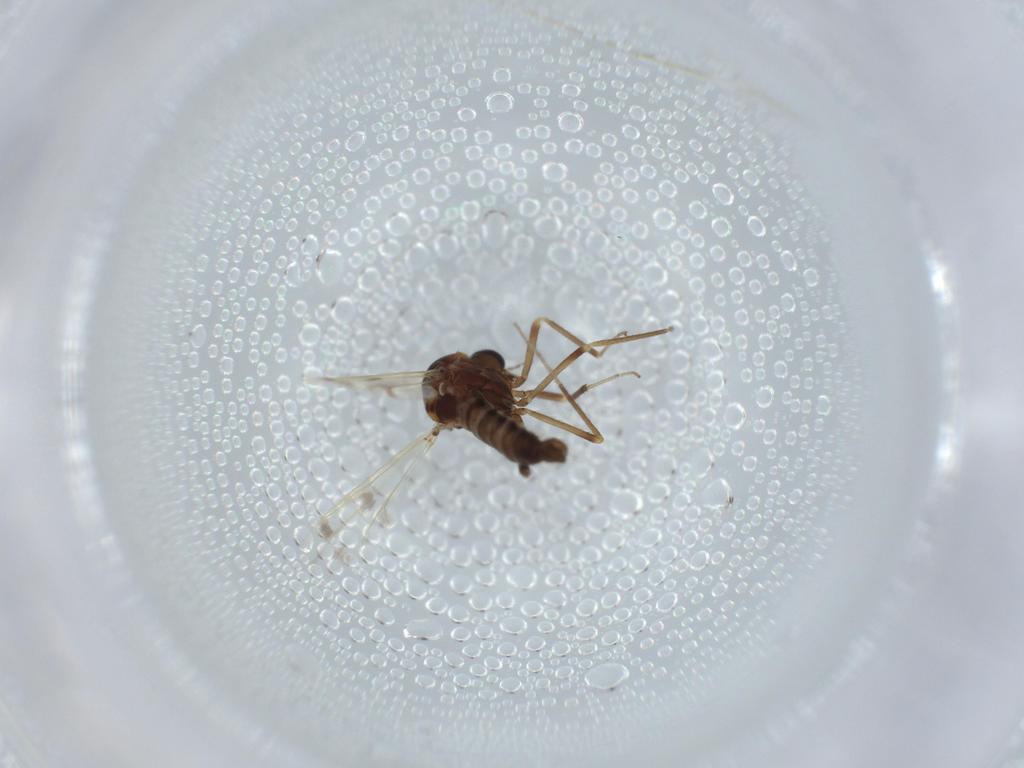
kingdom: Animalia
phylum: Arthropoda
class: Insecta
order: Diptera
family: Ceratopogonidae
